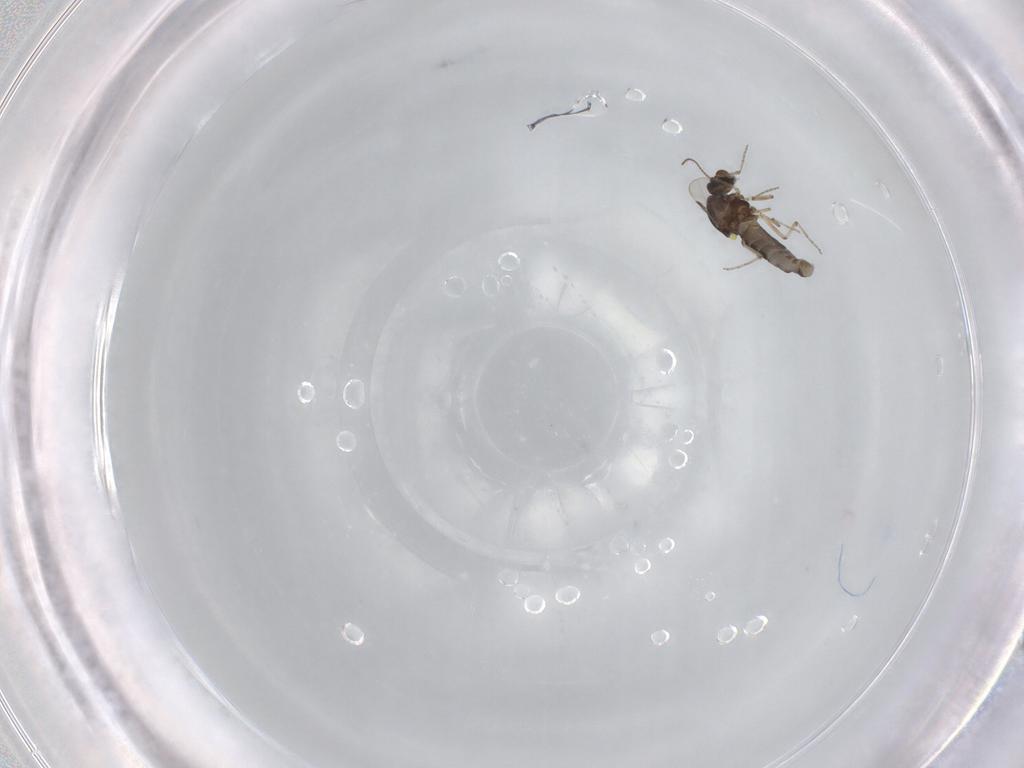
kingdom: Animalia
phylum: Arthropoda
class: Insecta
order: Diptera
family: Ceratopogonidae
